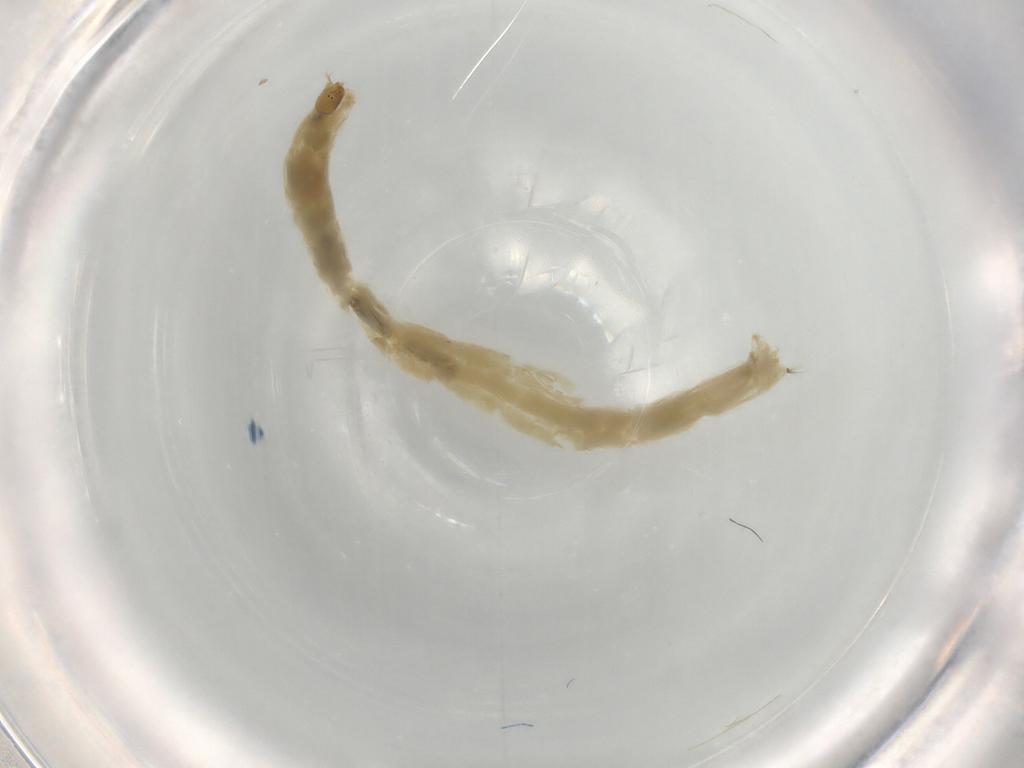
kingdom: Animalia
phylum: Arthropoda
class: Insecta
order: Diptera
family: Chironomidae
